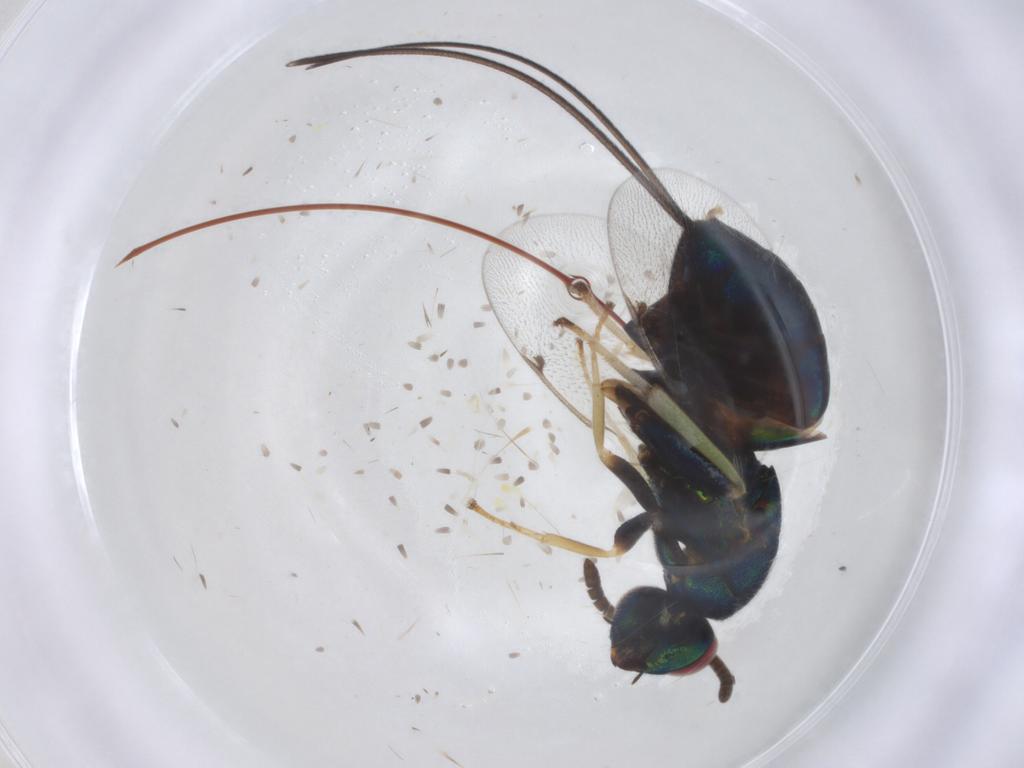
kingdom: Animalia
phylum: Arthropoda
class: Insecta
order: Hymenoptera
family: Torymidae
